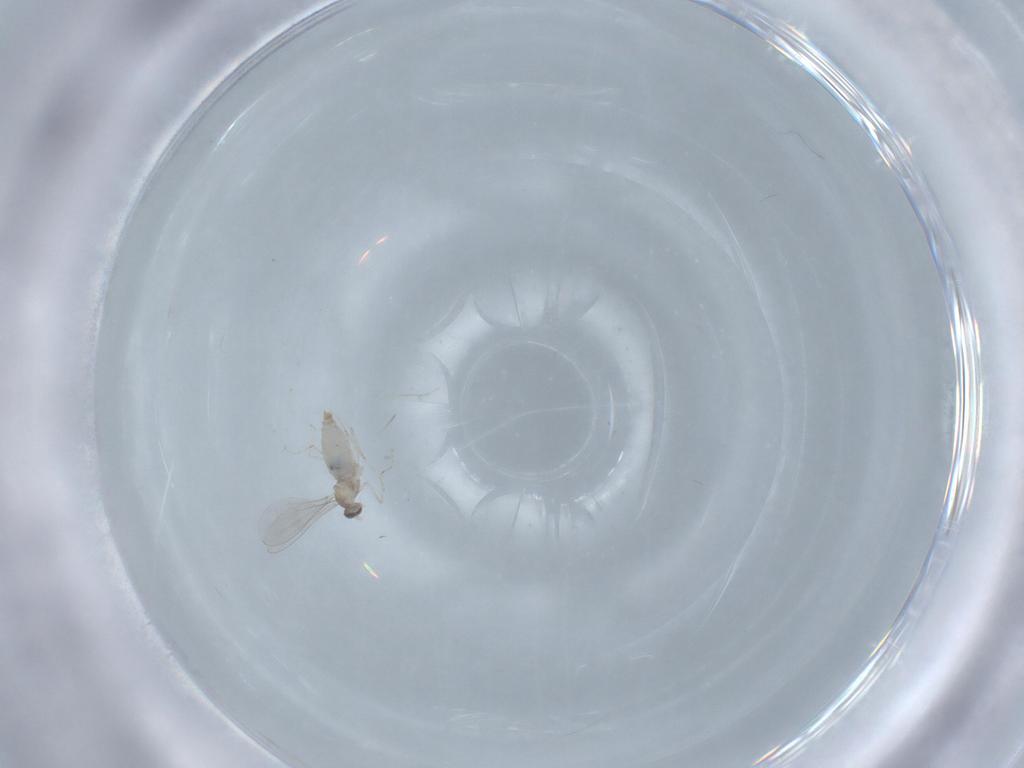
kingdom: Animalia
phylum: Arthropoda
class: Insecta
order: Diptera
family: Cecidomyiidae
